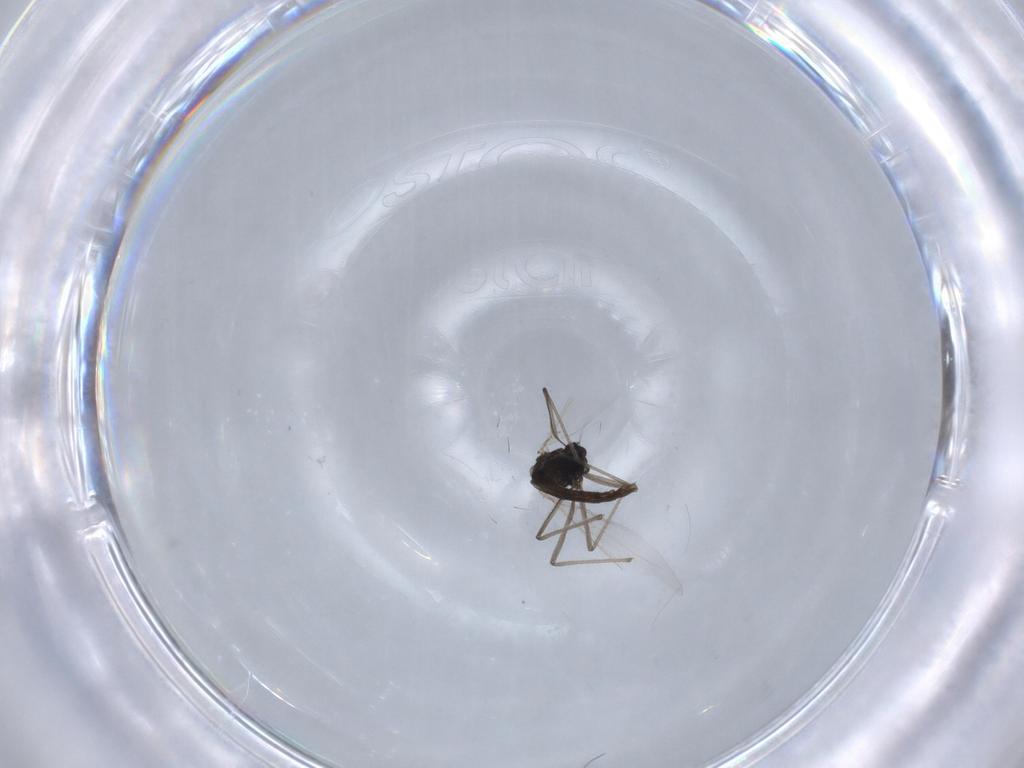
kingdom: Animalia
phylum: Arthropoda
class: Insecta
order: Diptera
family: Chironomidae
